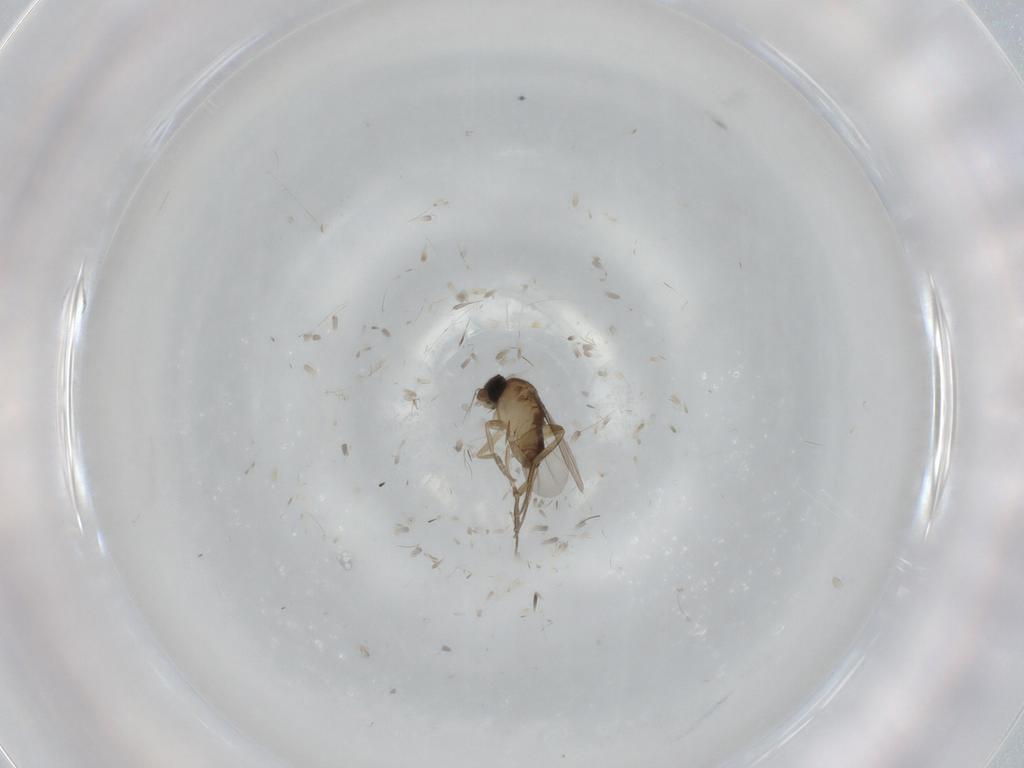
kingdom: Animalia
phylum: Arthropoda
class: Insecta
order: Diptera
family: Phoridae
